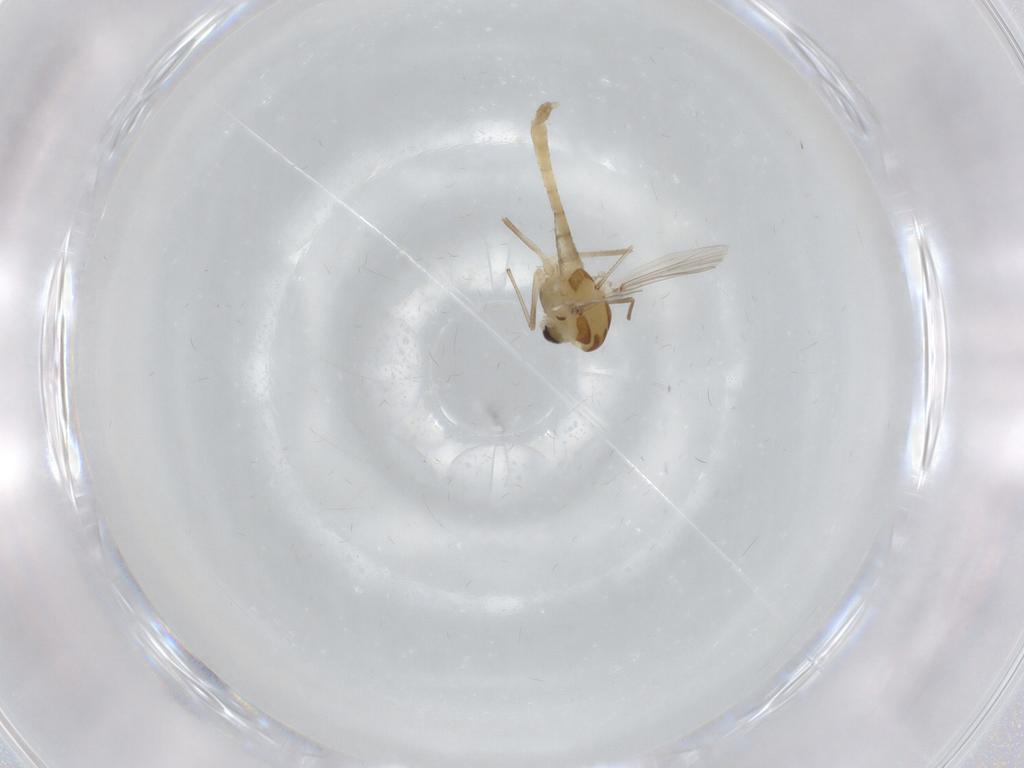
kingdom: Animalia
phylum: Arthropoda
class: Insecta
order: Diptera
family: Chironomidae
